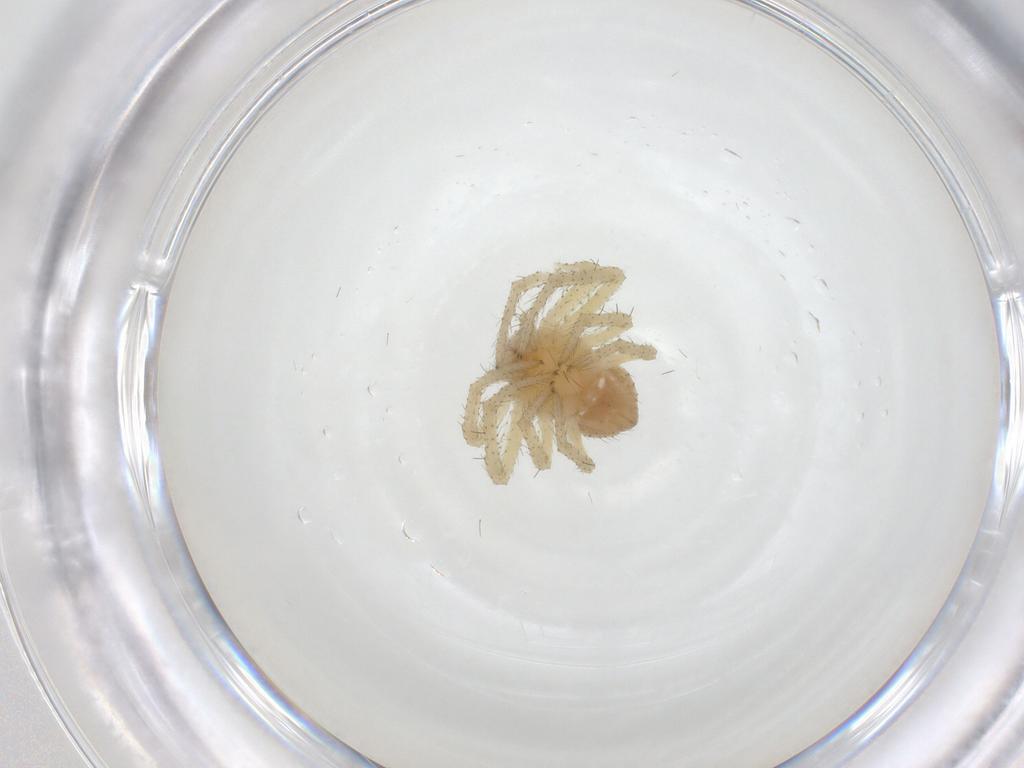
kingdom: Animalia
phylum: Arthropoda
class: Arachnida
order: Araneae
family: Thomisidae
